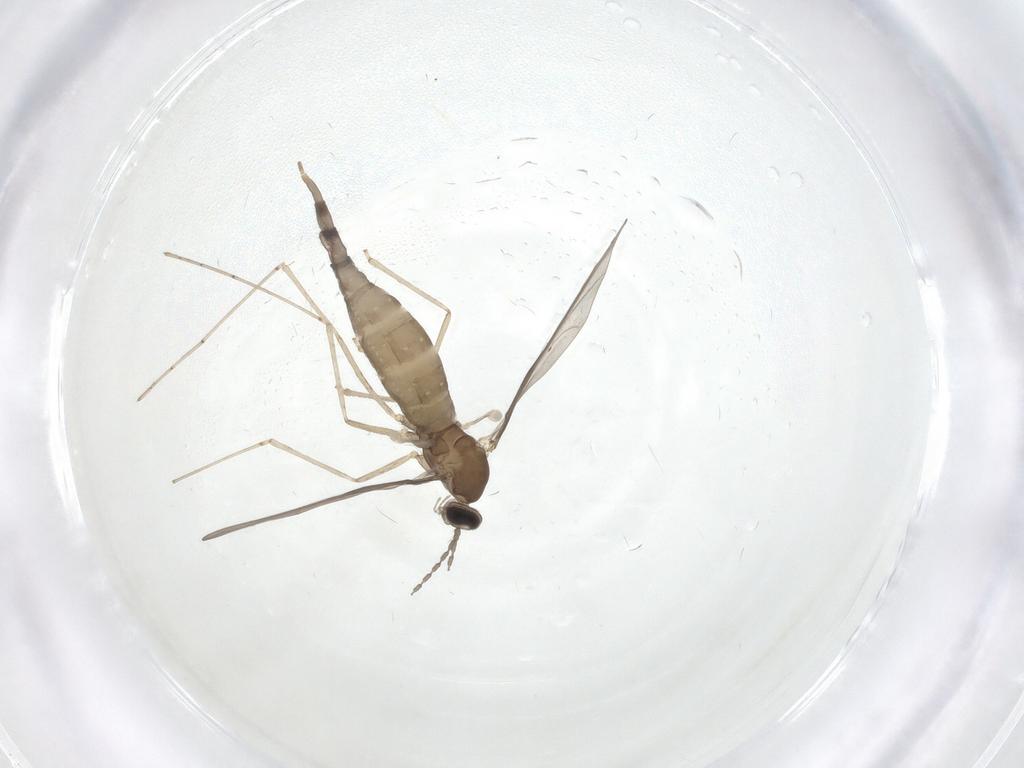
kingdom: Animalia
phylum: Arthropoda
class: Insecta
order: Diptera
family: Cecidomyiidae
